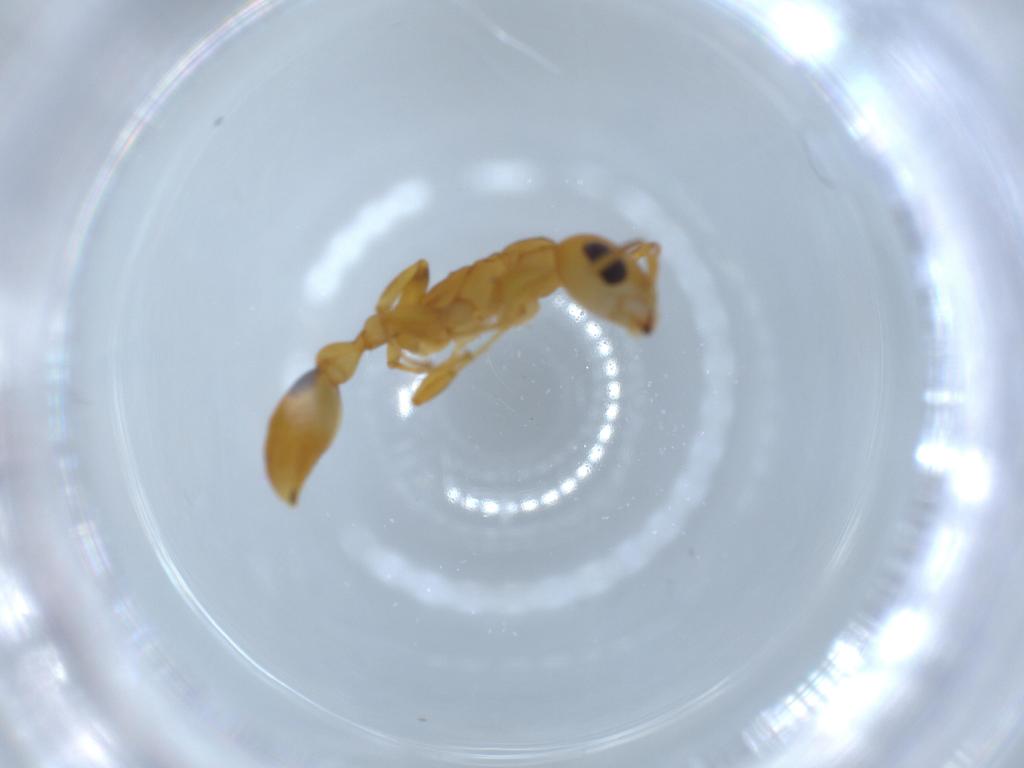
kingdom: Animalia
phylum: Arthropoda
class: Insecta
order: Hymenoptera
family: Formicidae
